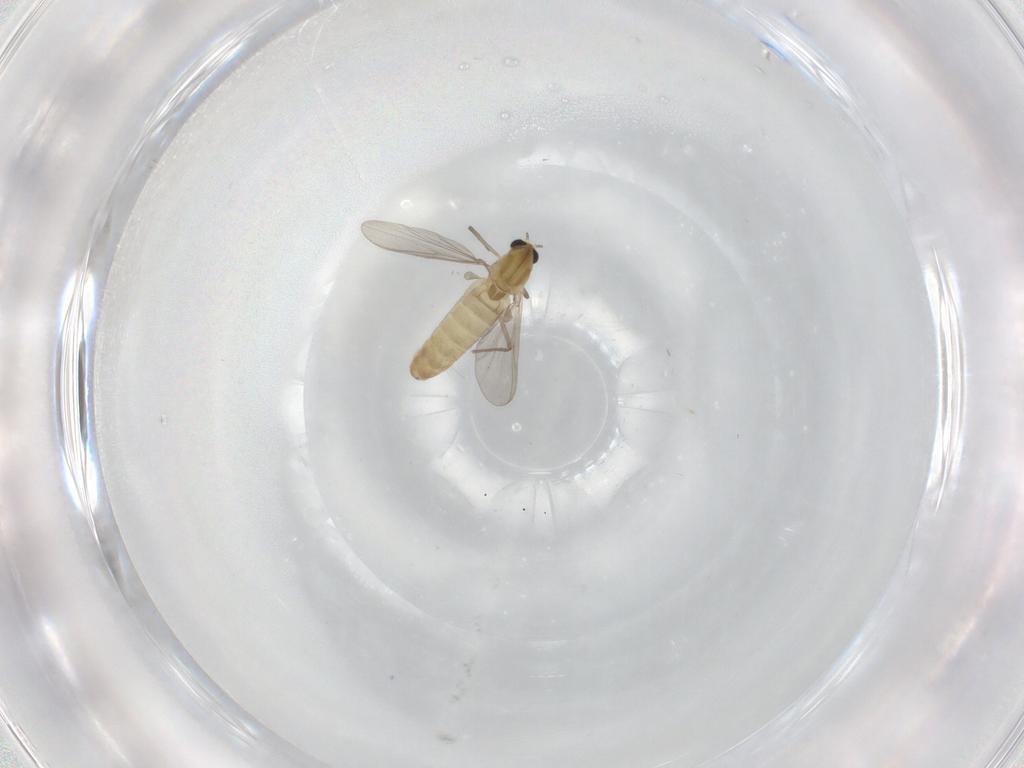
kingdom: Animalia
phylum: Arthropoda
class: Insecta
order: Diptera
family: Chironomidae
